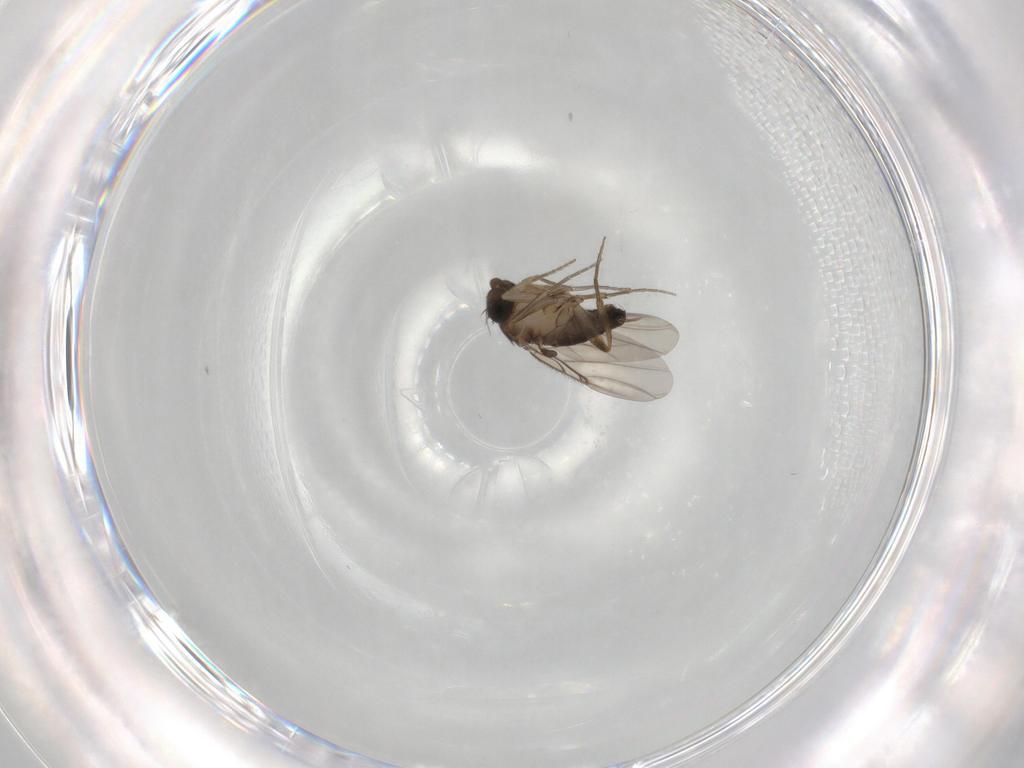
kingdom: Animalia
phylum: Arthropoda
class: Insecta
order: Diptera
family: Phoridae
